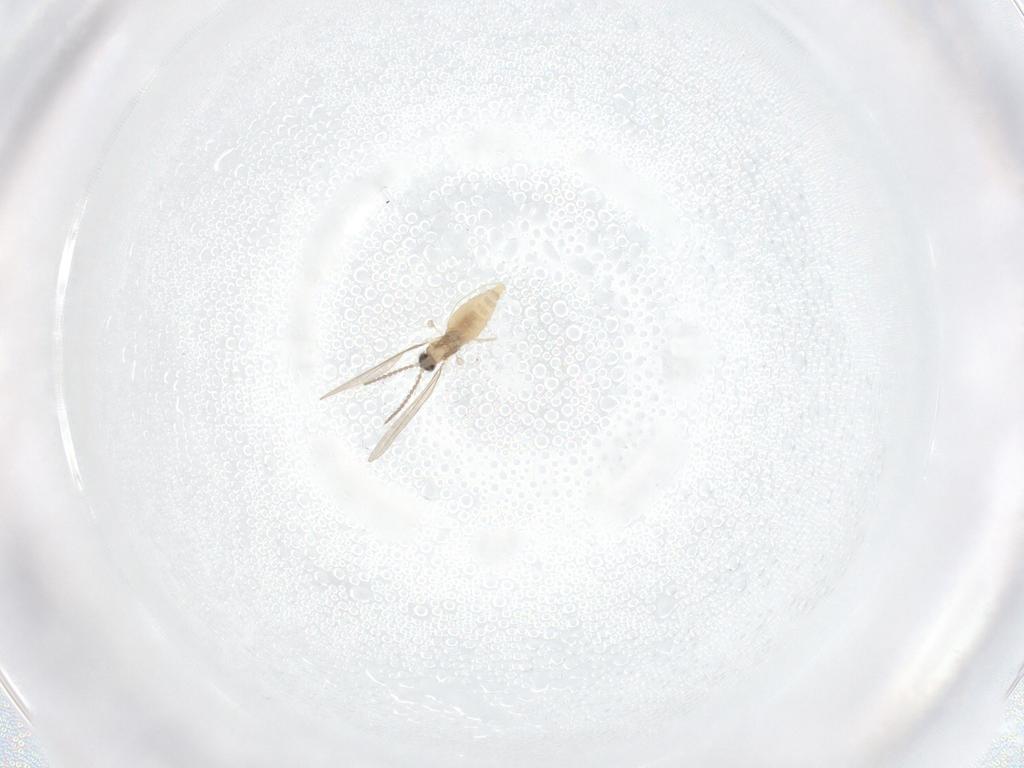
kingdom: Animalia
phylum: Arthropoda
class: Insecta
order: Diptera
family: Cecidomyiidae
